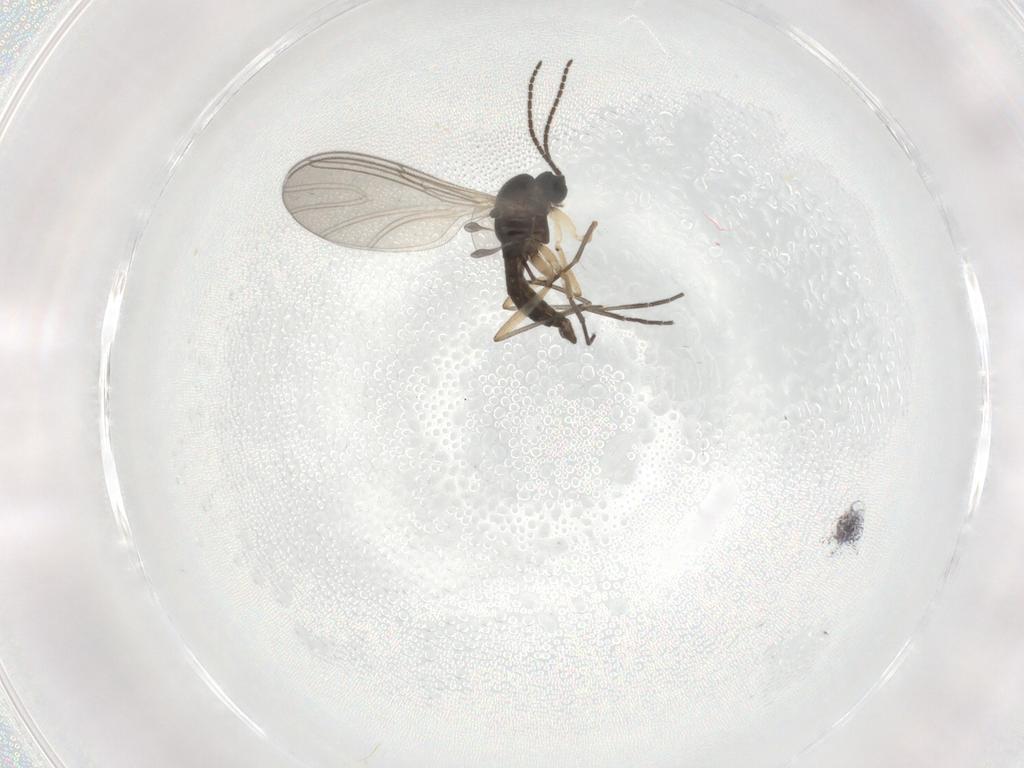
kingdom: Animalia
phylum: Arthropoda
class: Insecta
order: Diptera
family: Sciaridae
